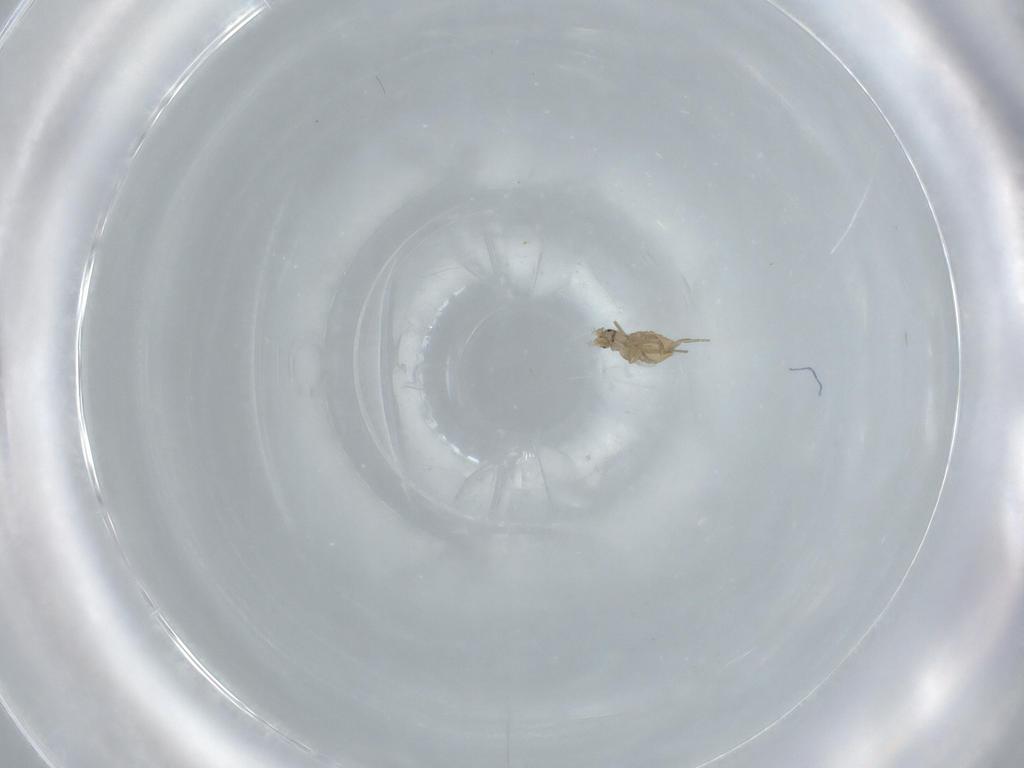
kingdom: Animalia
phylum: Arthropoda
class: Insecta
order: Diptera
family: Phoridae
